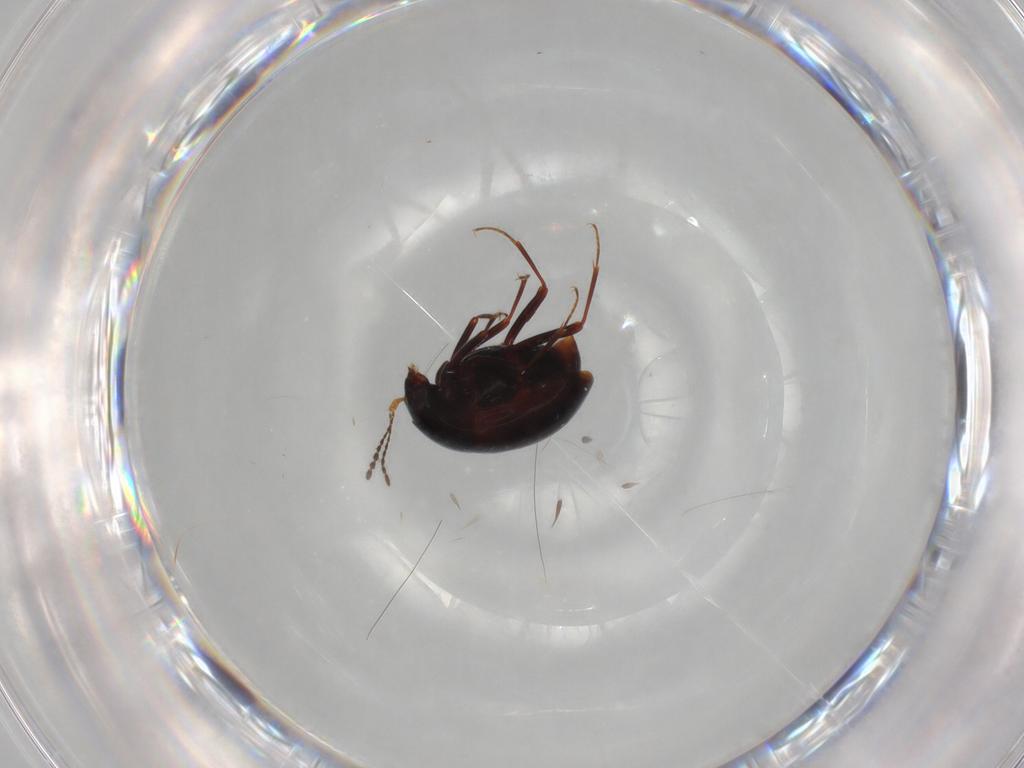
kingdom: Animalia
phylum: Arthropoda
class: Insecta
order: Coleoptera
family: Staphylinidae
